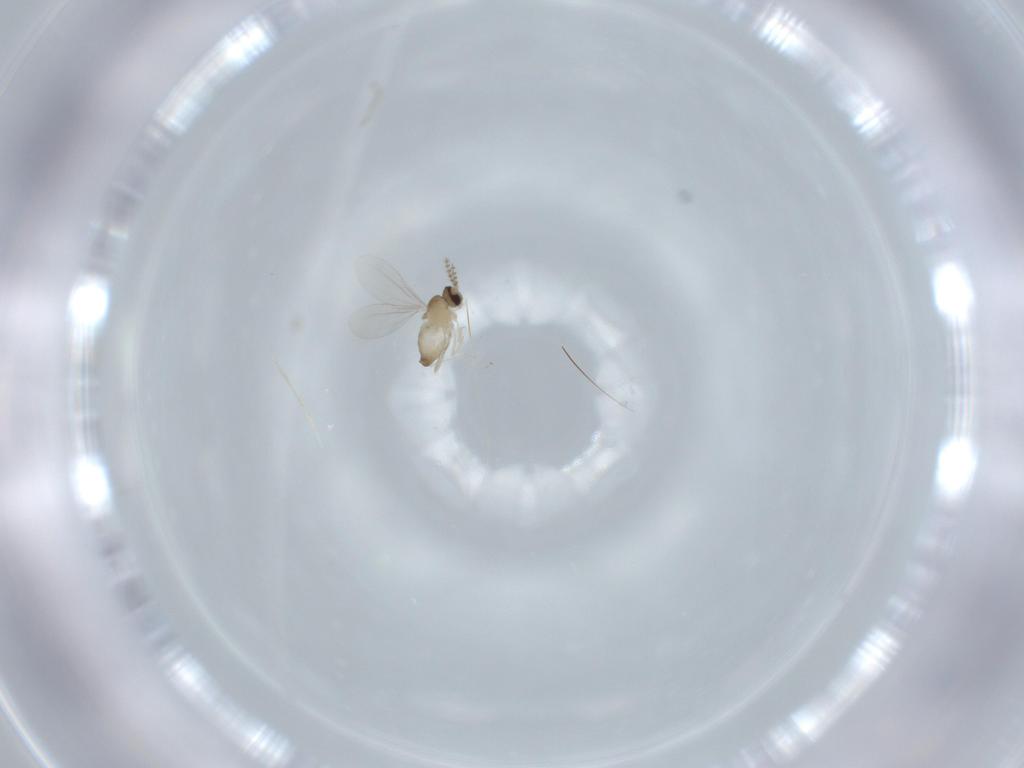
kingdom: Animalia
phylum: Arthropoda
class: Insecta
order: Diptera
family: Cecidomyiidae
